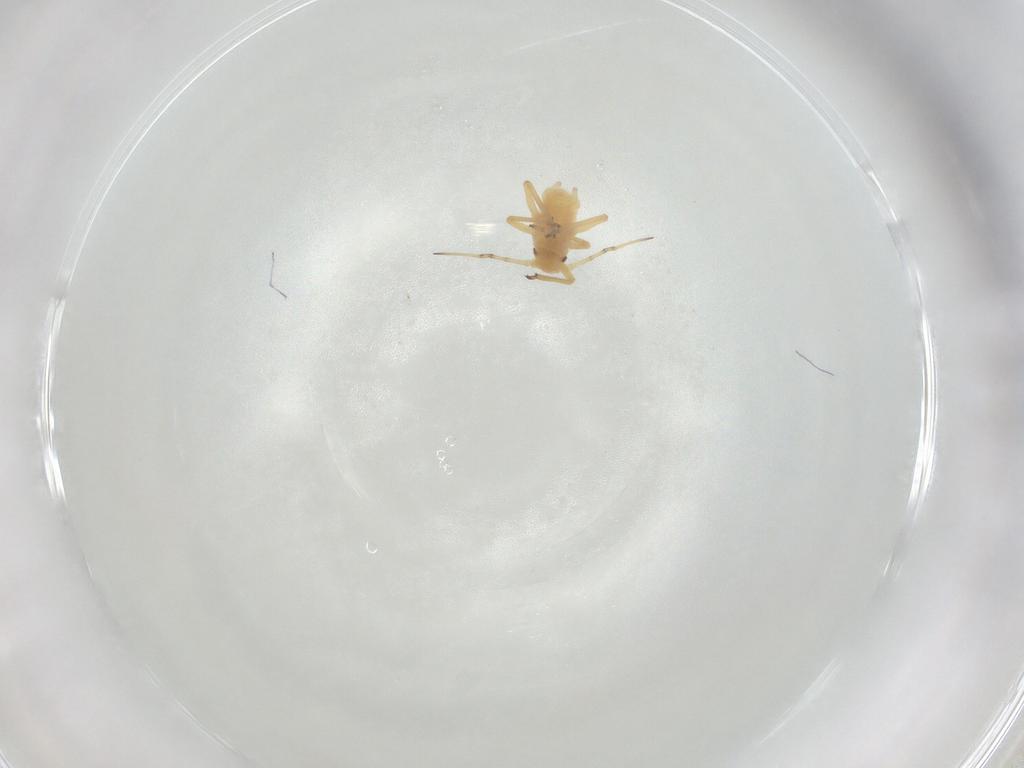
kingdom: Animalia
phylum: Arthropoda
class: Insecta
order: Hemiptera
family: Aphididae
